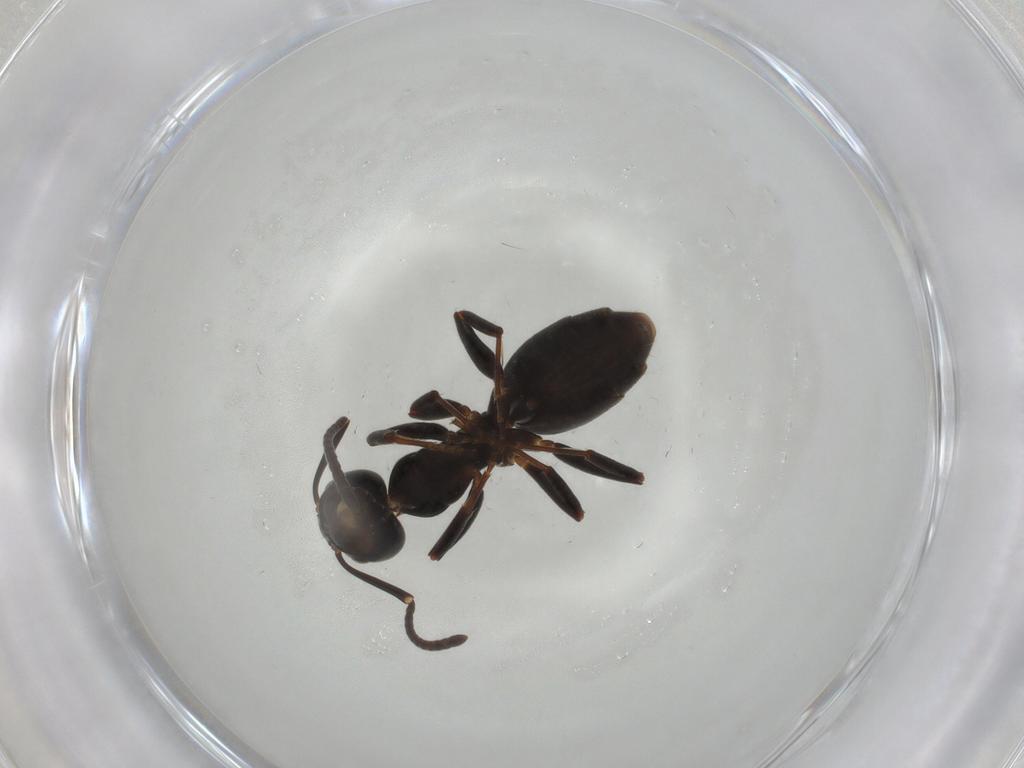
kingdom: Animalia
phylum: Arthropoda
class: Insecta
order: Hymenoptera
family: Formicidae
